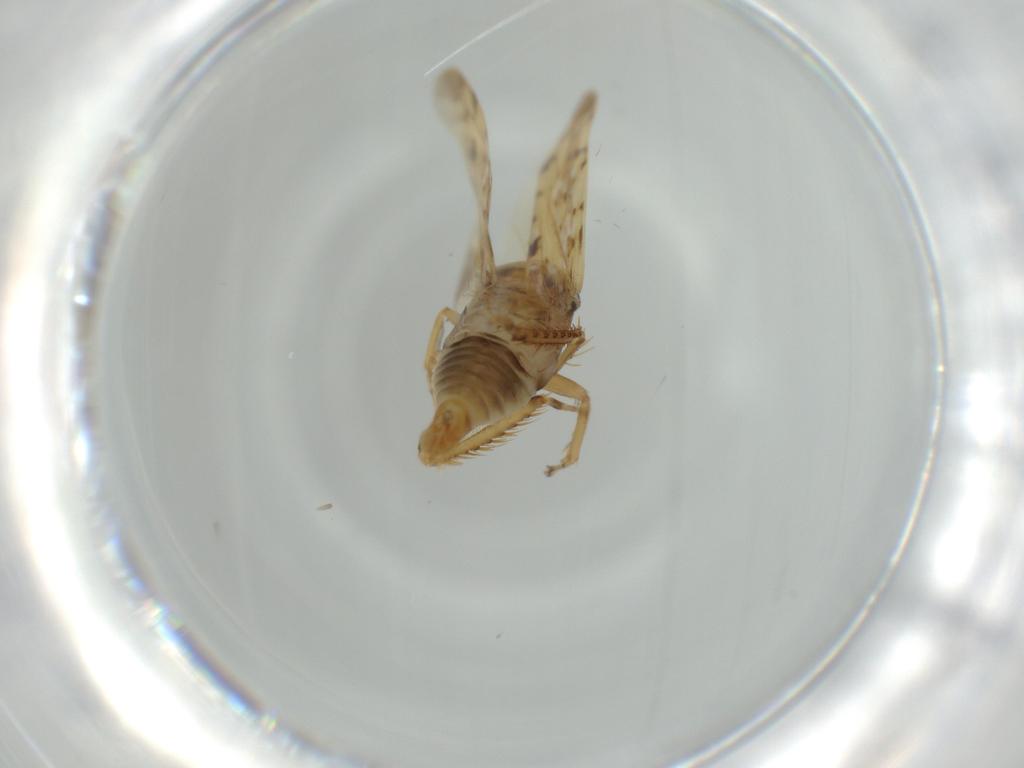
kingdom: Animalia
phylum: Arthropoda
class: Insecta
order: Hemiptera
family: Cicadellidae
